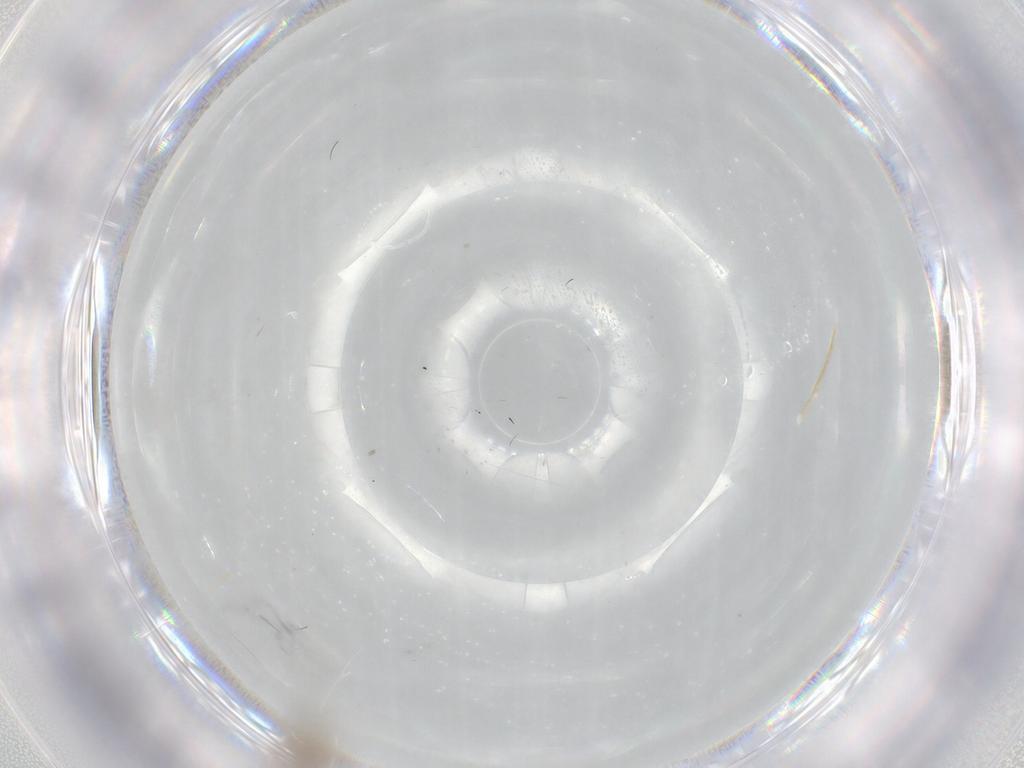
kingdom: Animalia
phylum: Arthropoda
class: Insecta
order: Diptera
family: Chironomidae
